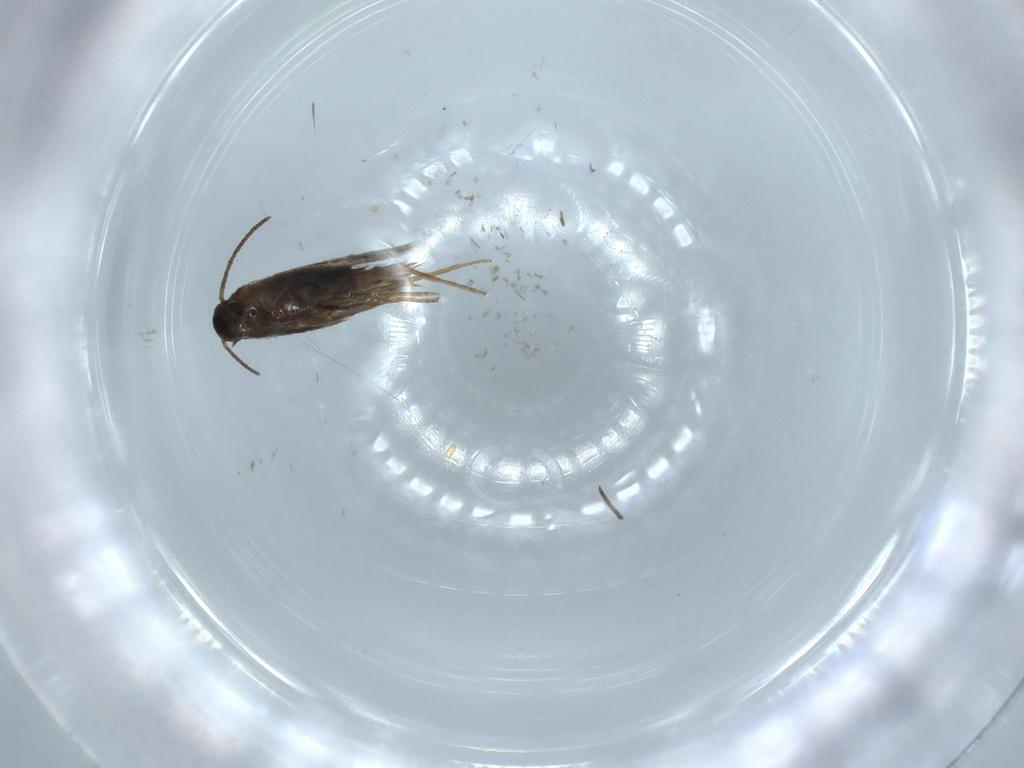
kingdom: Animalia
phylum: Arthropoda
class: Insecta
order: Lepidoptera
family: Heliozelidae
